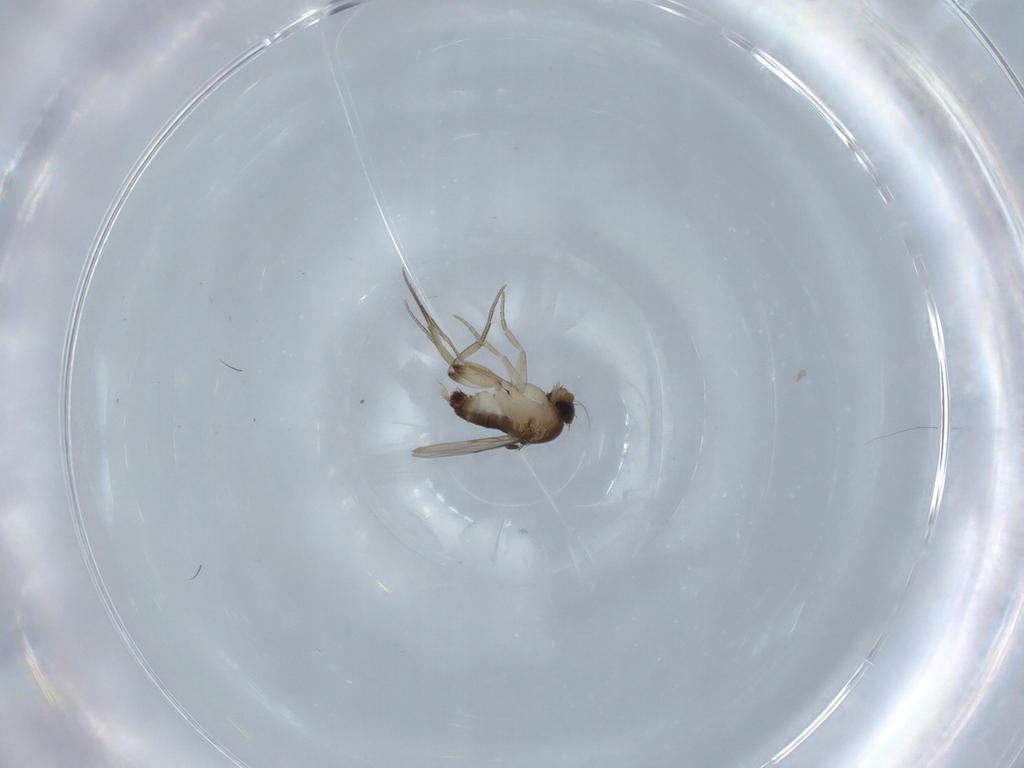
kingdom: Animalia
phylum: Arthropoda
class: Insecta
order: Diptera
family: Phoridae
